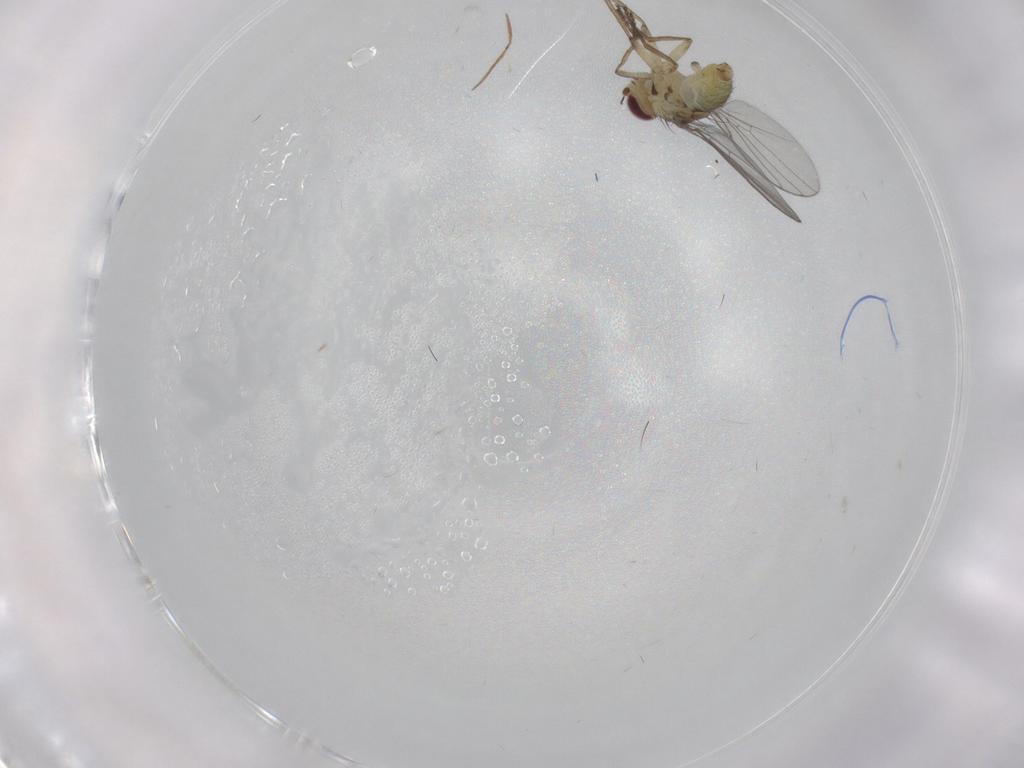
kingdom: Animalia
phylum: Arthropoda
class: Insecta
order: Diptera
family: Agromyzidae
